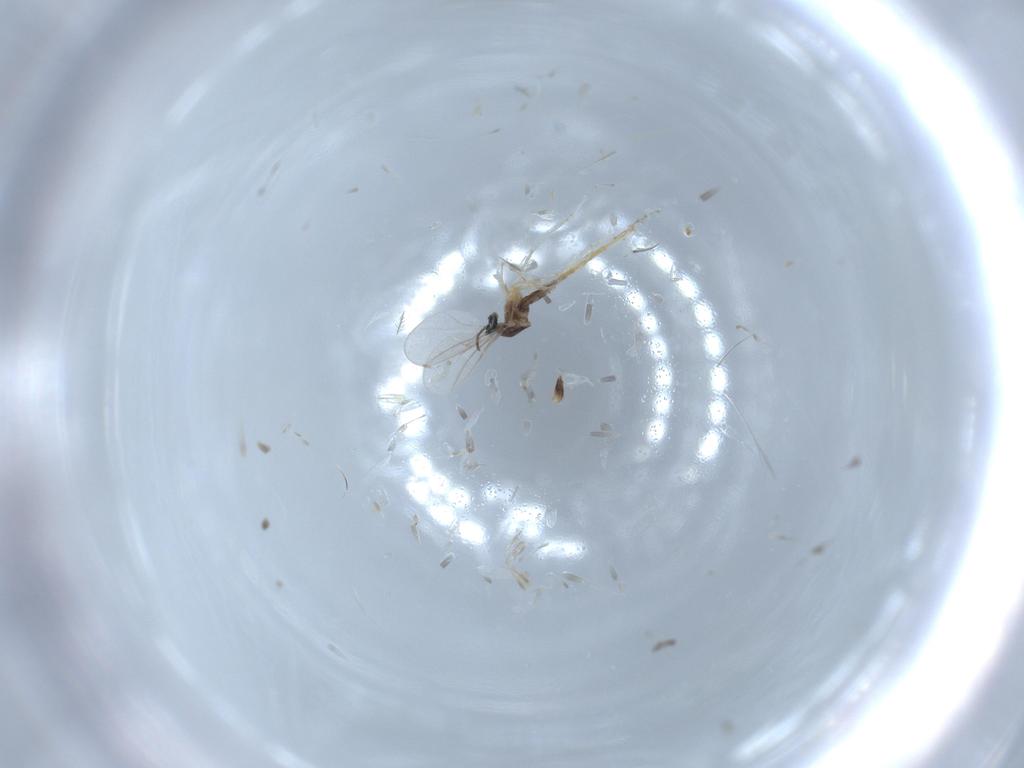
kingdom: Animalia
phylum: Arthropoda
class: Insecta
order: Diptera
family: Cecidomyiidae
